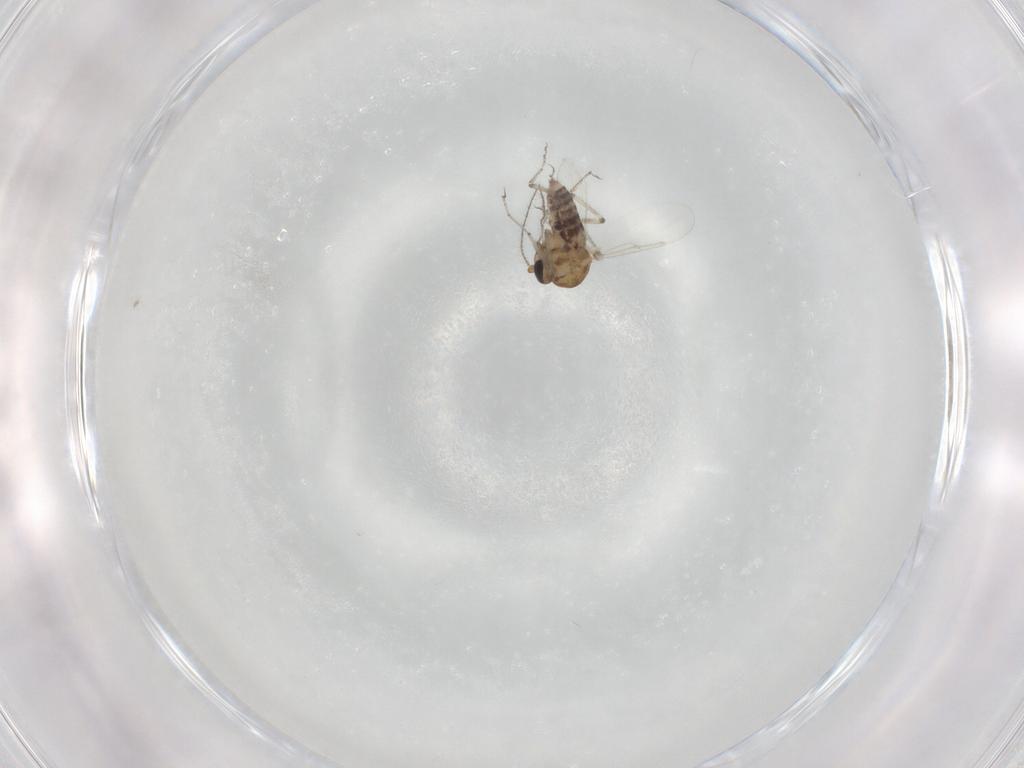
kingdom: Animalia
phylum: Arthropoda
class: Insecta
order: Diptera
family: Ceratopogonidae
